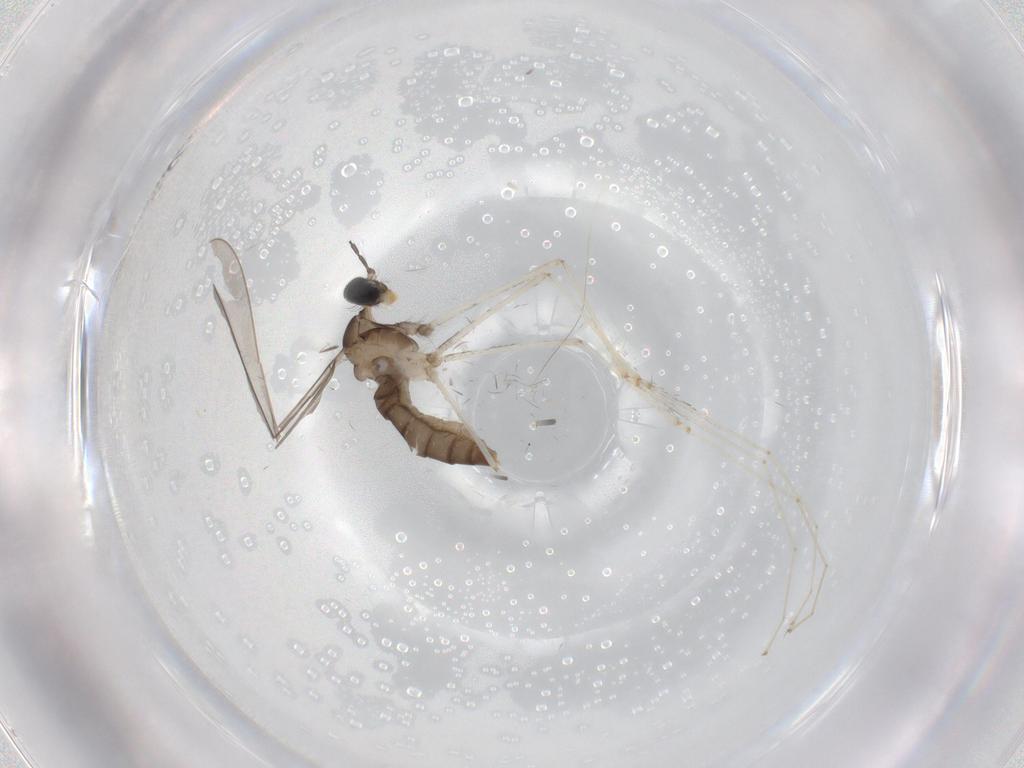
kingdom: Animalia
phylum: Arthropoda
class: Insecta
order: Diptera
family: Cecidomyiidae
